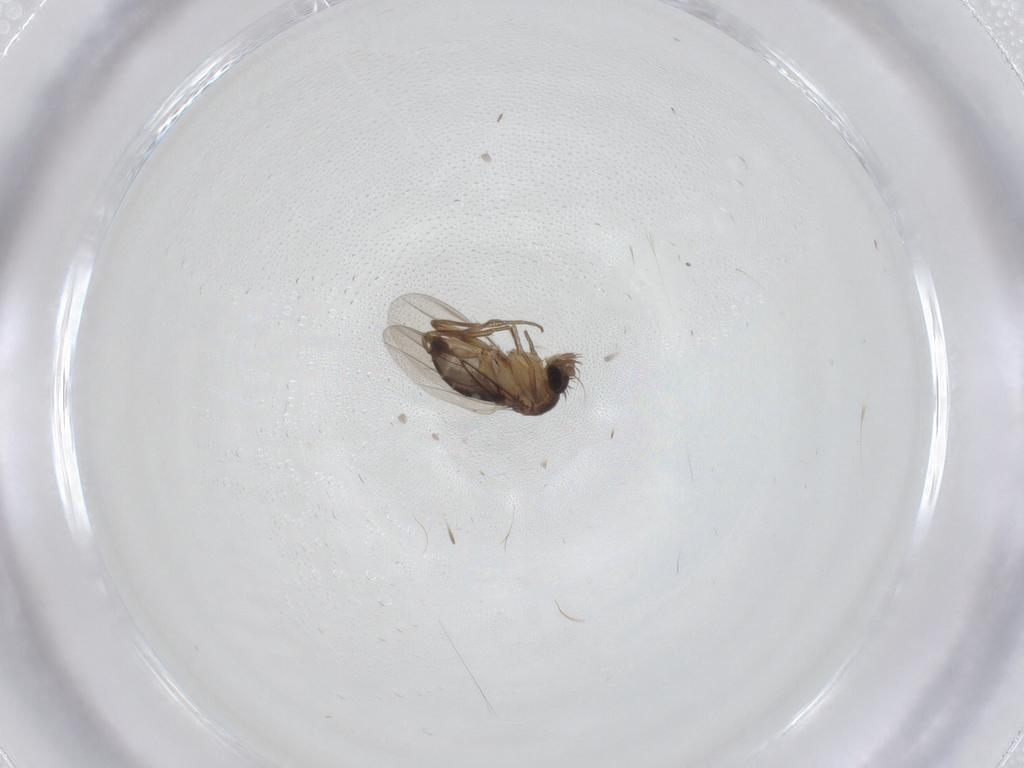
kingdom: Animalia
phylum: Arthropoda
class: Insecta
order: Diptera
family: Phoridae
